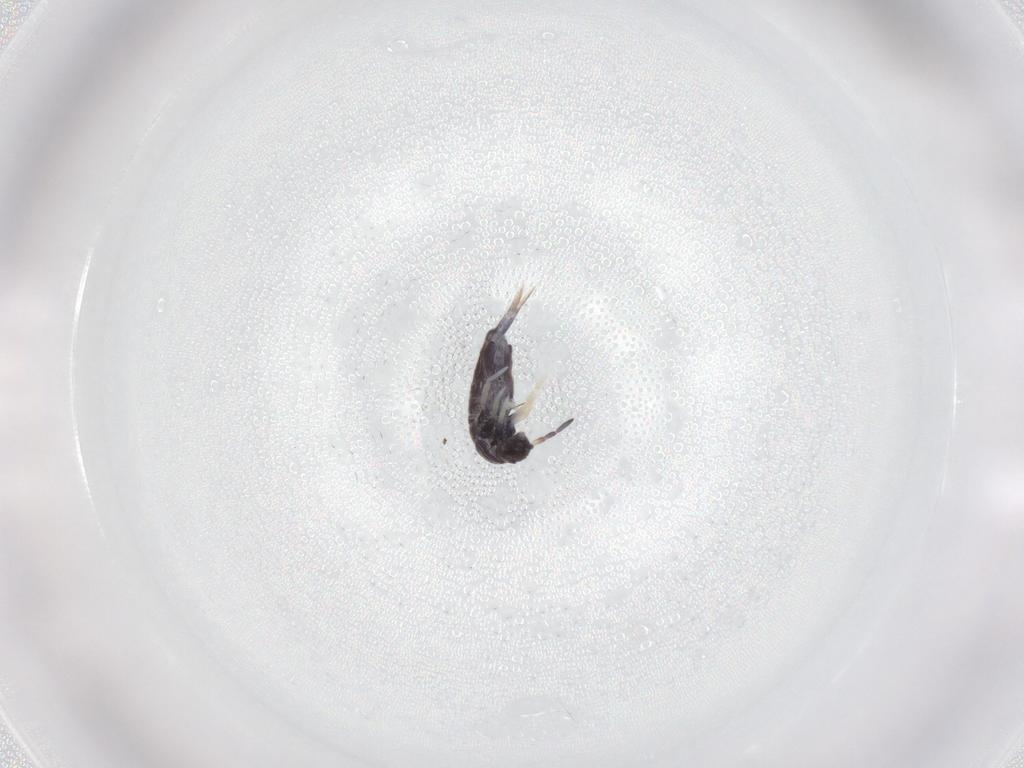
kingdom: Animalia
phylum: Arthropoda
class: Collembola
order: Entomobryomorpha
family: Entomobryidae
